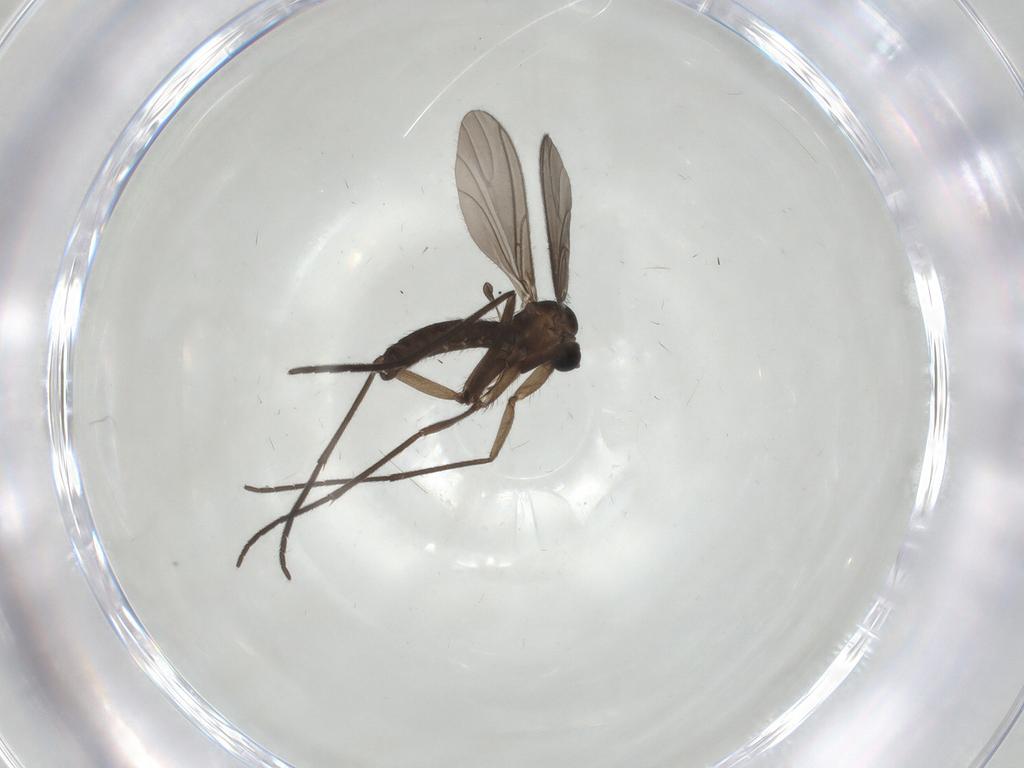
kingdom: Animalia
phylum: Arthropoda
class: Insecta
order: Diptera
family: Sciaridae
